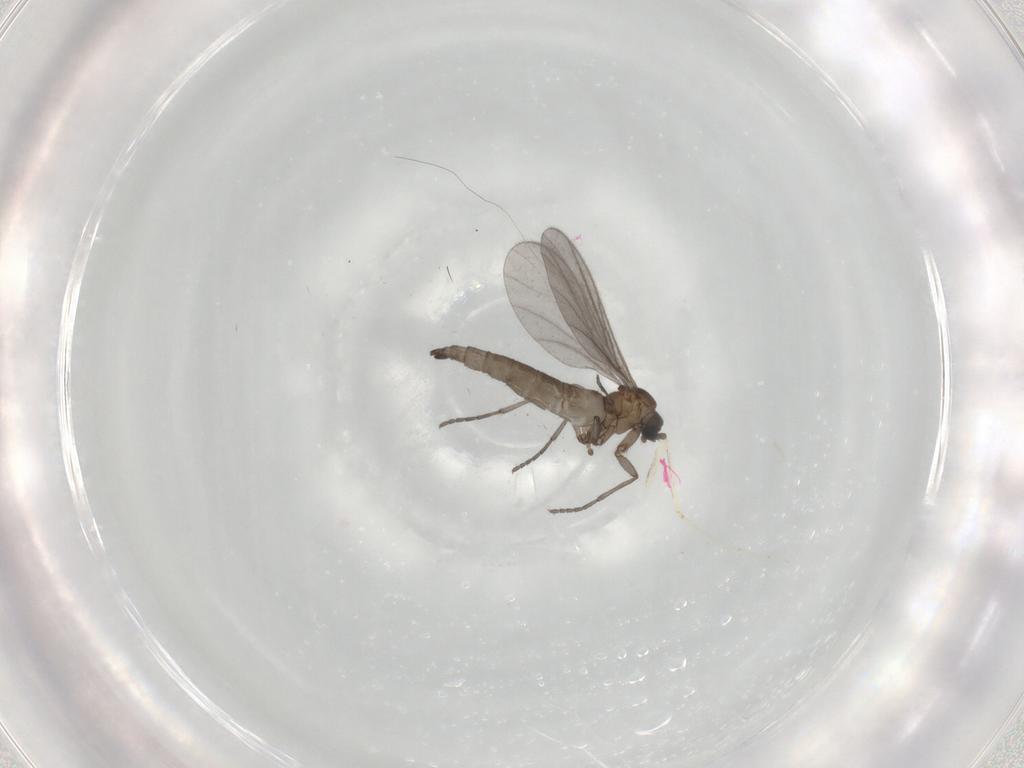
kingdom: Animalia
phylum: Arthropoda
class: Insecta
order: Diptera
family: Sciaridae
